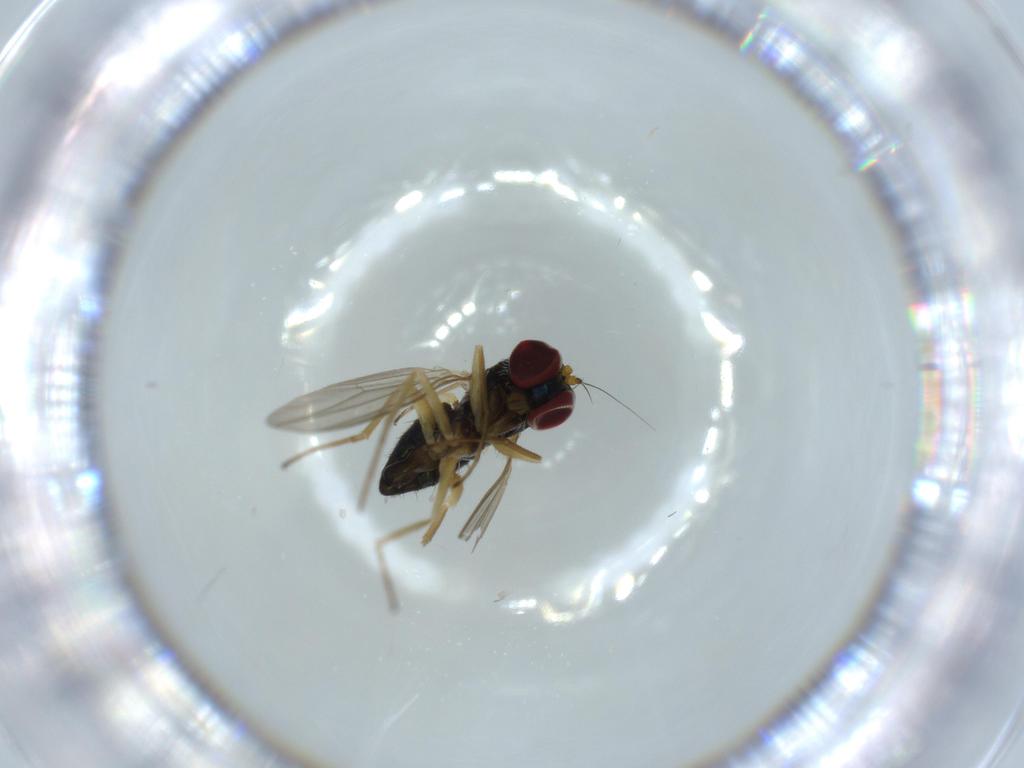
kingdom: Animalia
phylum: Arthropoda
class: Insecta
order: Diptera
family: Dolichopodidae
